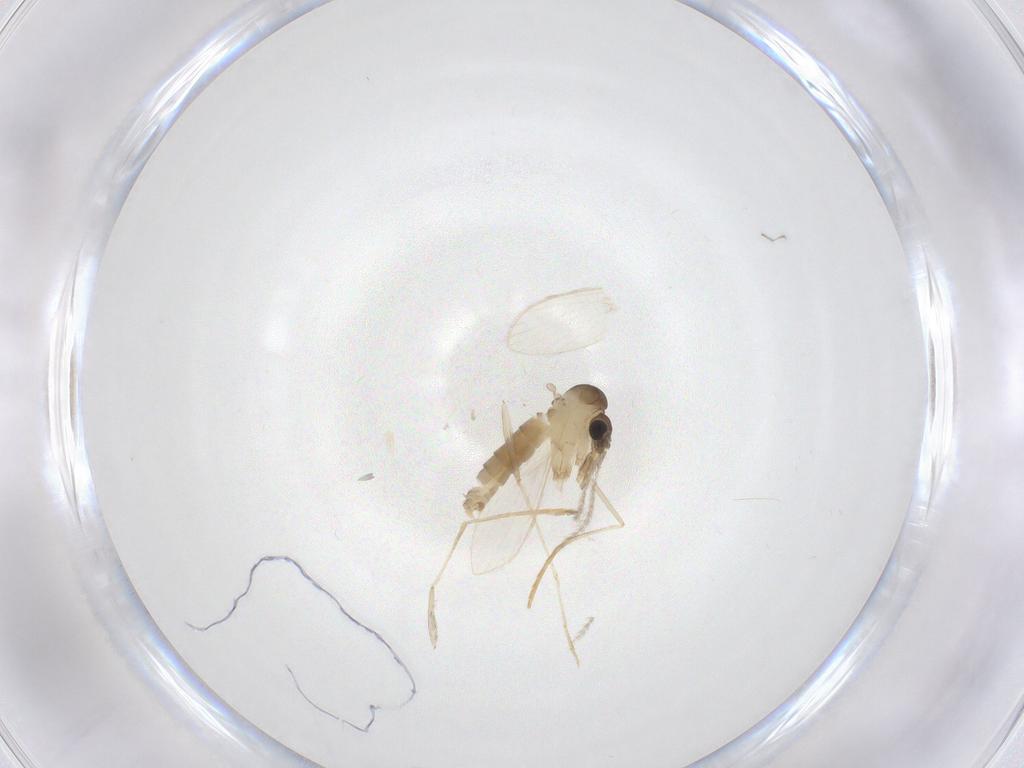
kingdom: Animalia
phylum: Arthropoda
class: Insecta
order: Diptera
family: Psychodidae
